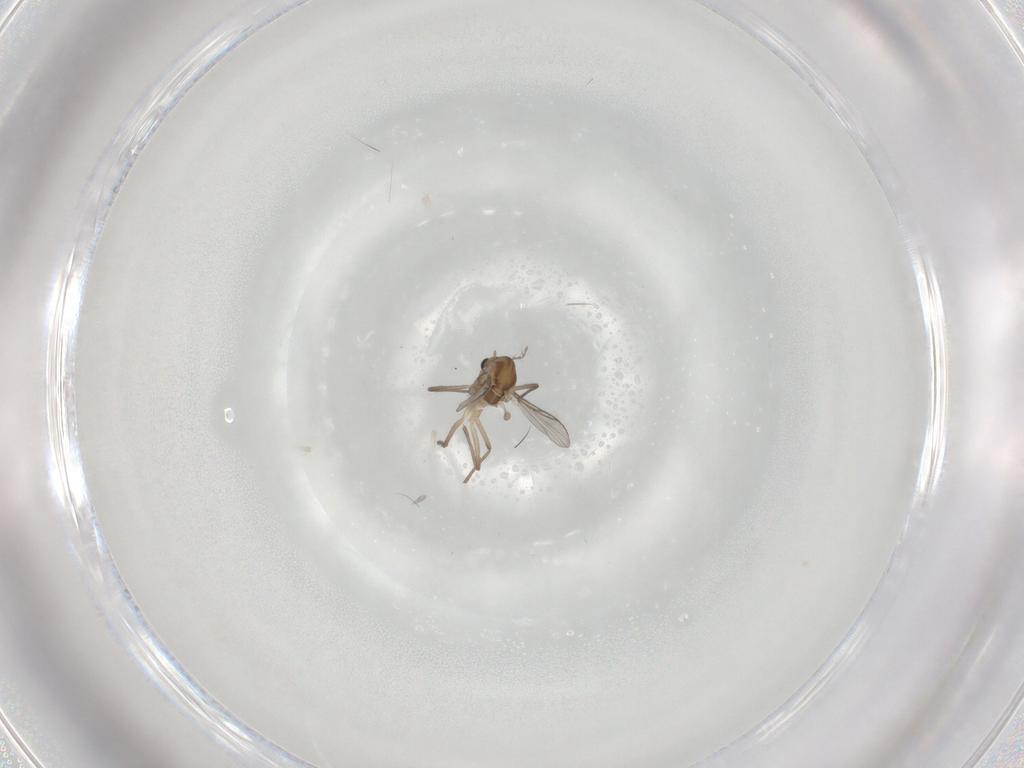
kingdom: Animalia
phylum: Arthropoda
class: Insecta
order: Diptera
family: Chironomidae
